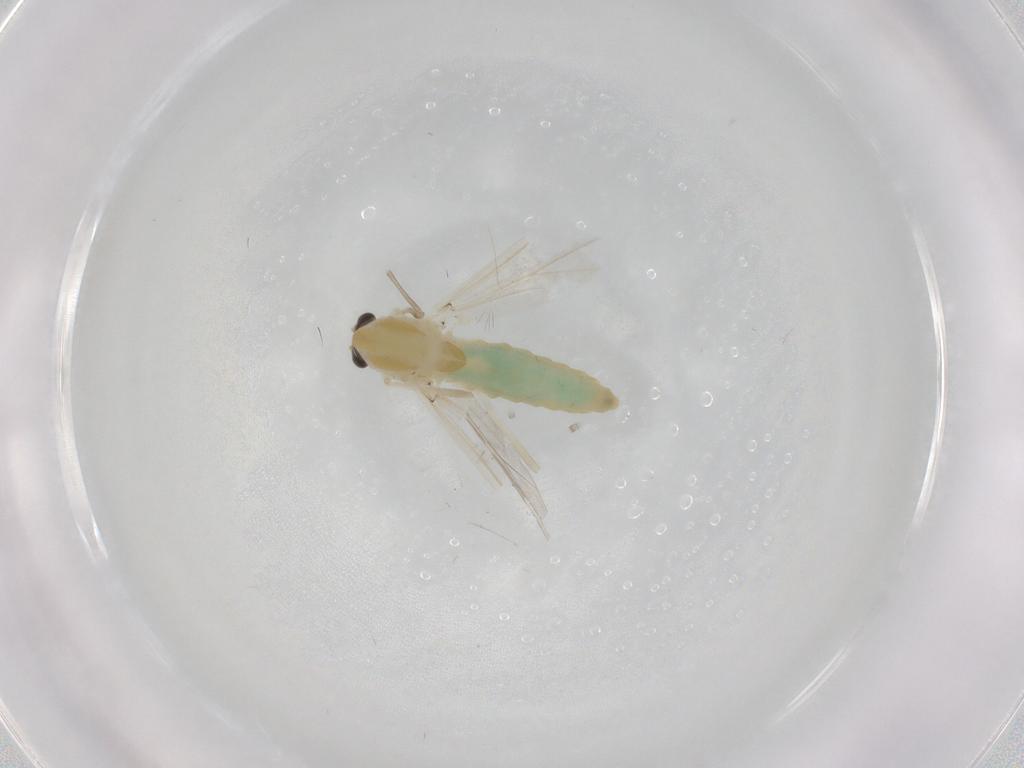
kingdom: Animalia
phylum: Arthropoda
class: Insecta
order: Diptera
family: Chironomidae
